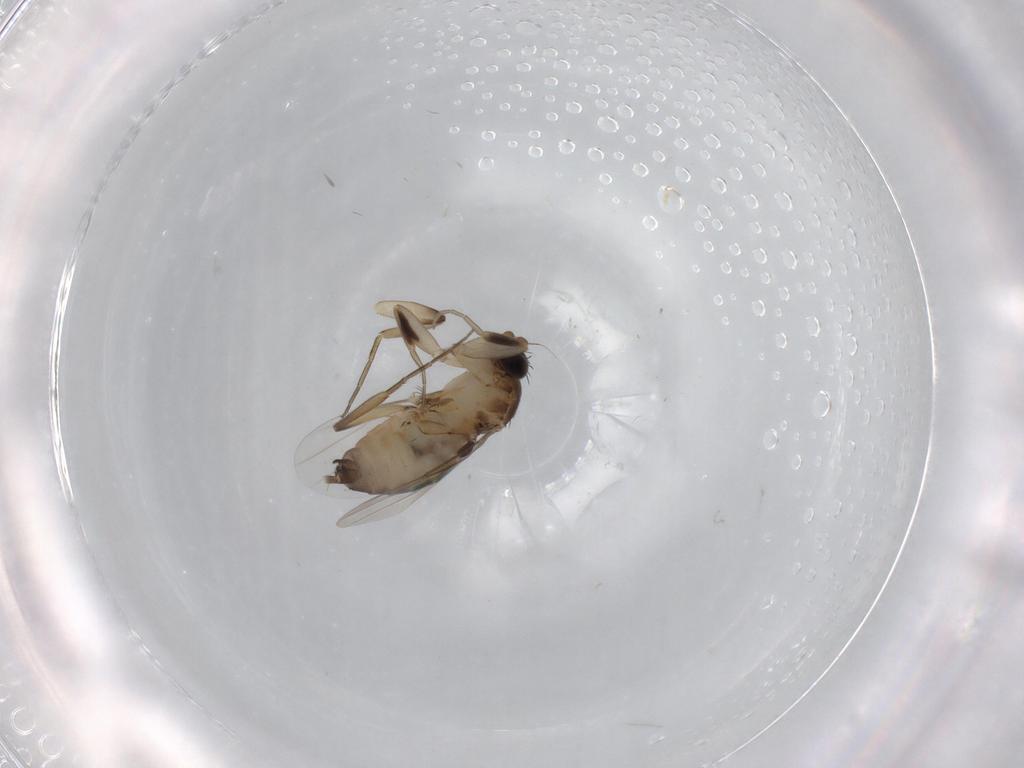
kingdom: Animalia
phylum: Arthropoda
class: Insecta
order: Diptera
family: Phoridae
